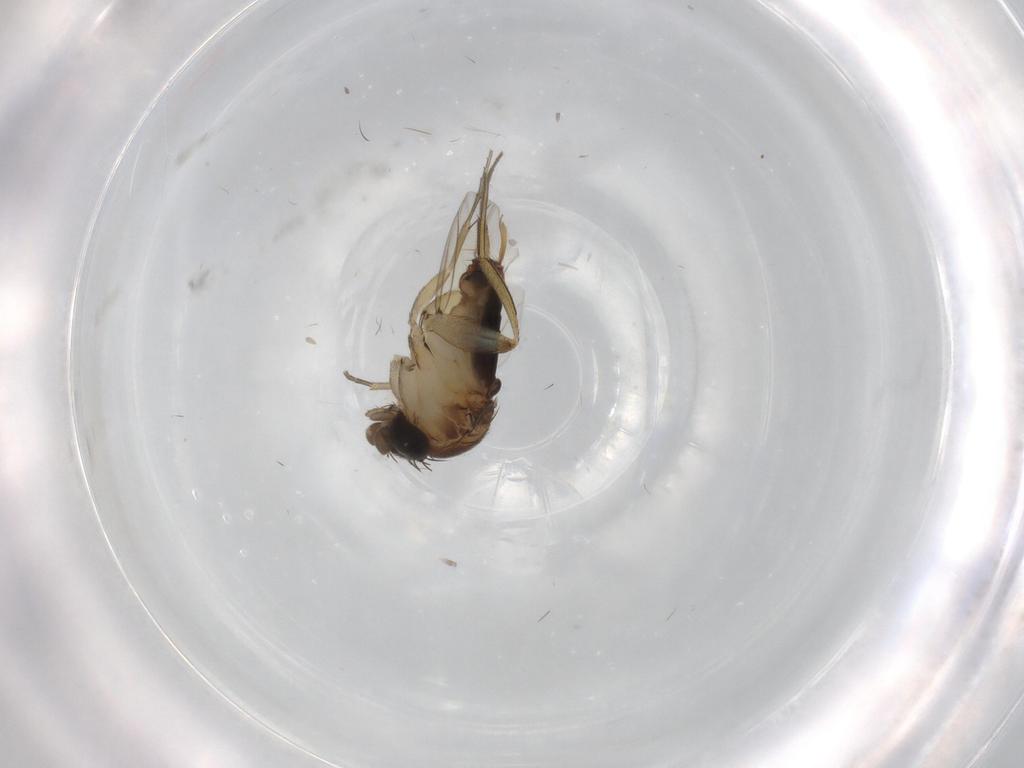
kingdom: Animalia
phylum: Arthropoda
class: Insecta
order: Diptera
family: Phoridae
